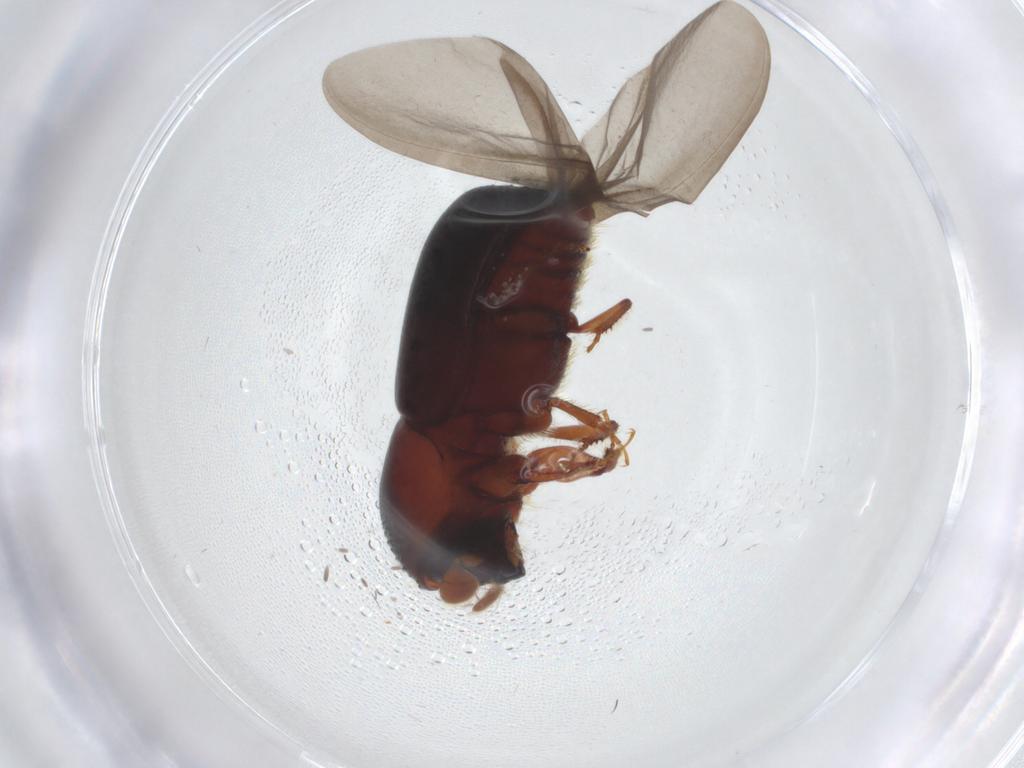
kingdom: Animalia
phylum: Arthropoda
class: Insecta
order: Coleoptera
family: Curculionidae
